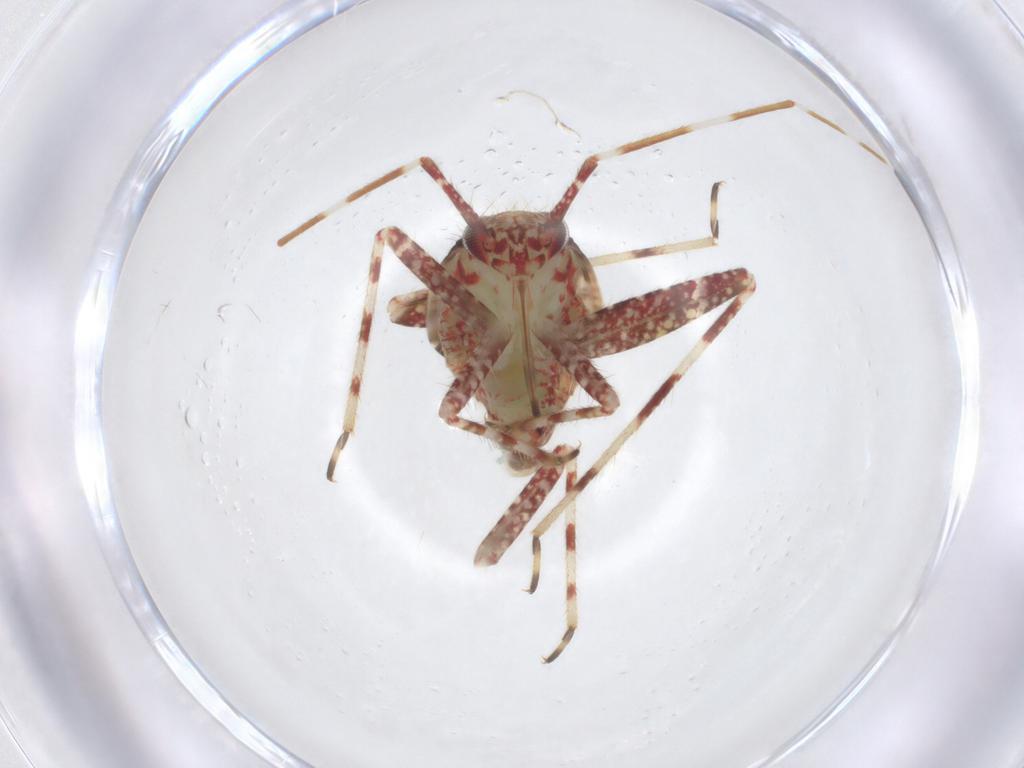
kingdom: Animalia
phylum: Arthropoda
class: Insecta
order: Hemiptera
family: Miridae
